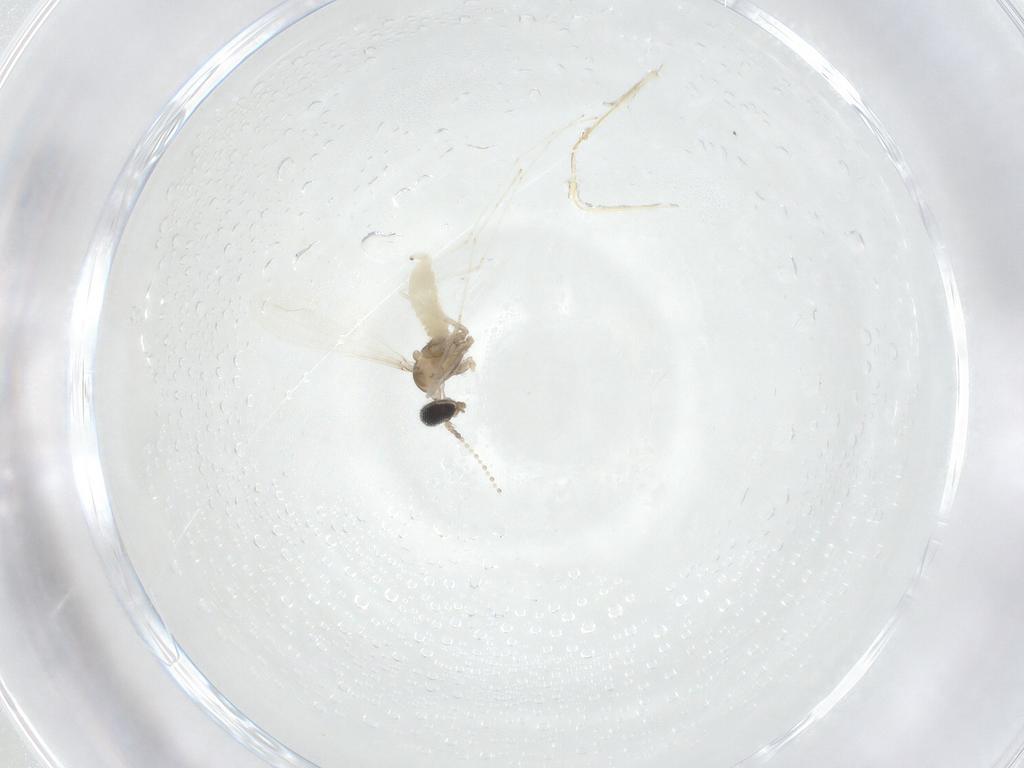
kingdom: Animalia
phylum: Arthropoda
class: Insecta
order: Diptera
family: Cecidomyiidae
